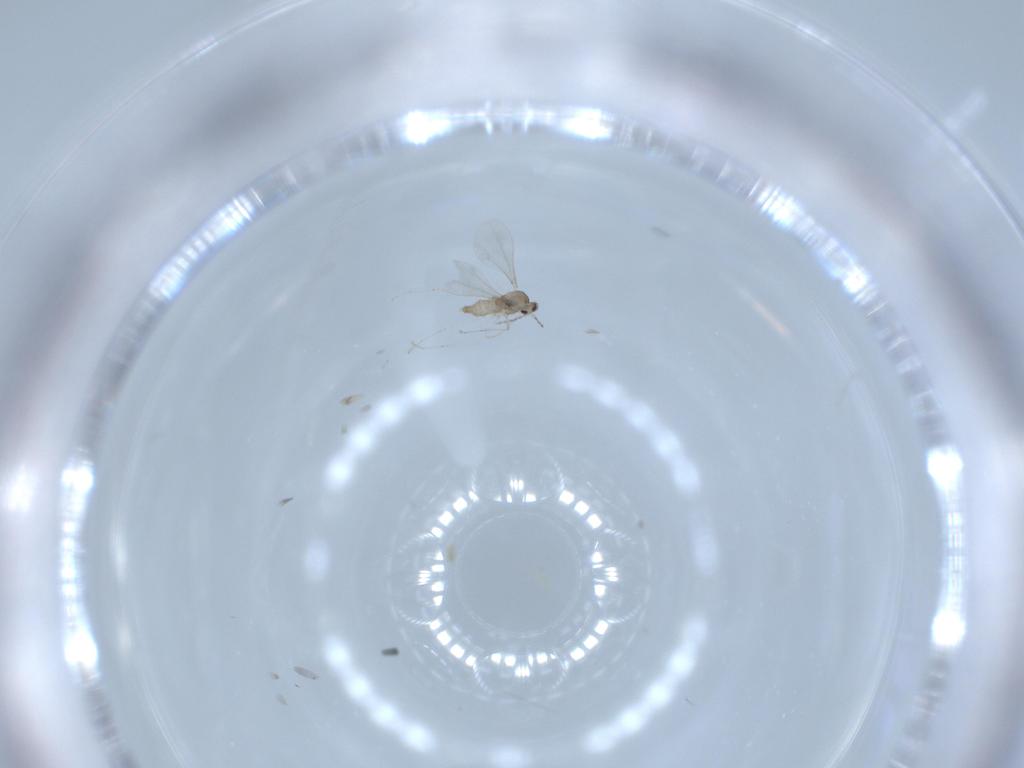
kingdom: Animalia
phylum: Arthropoda
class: Insecta
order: Diptera
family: Cecidomyiidae
